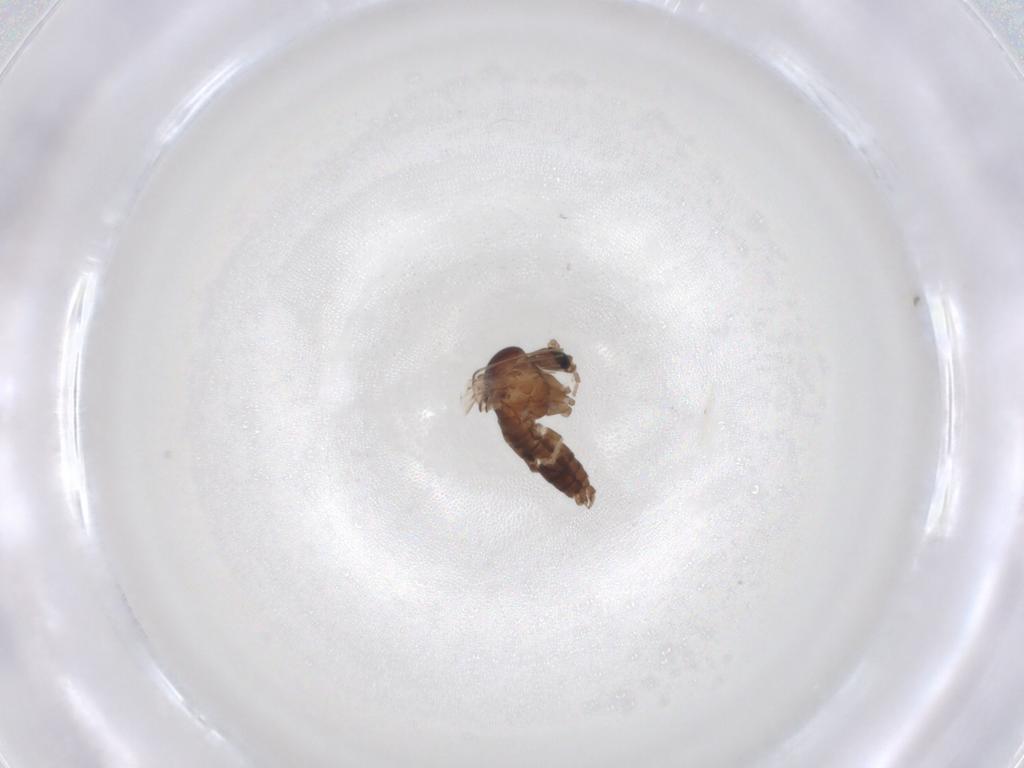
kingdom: Animalia
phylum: Arthropoda
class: Insecta
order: Diptera
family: Psychodidae
